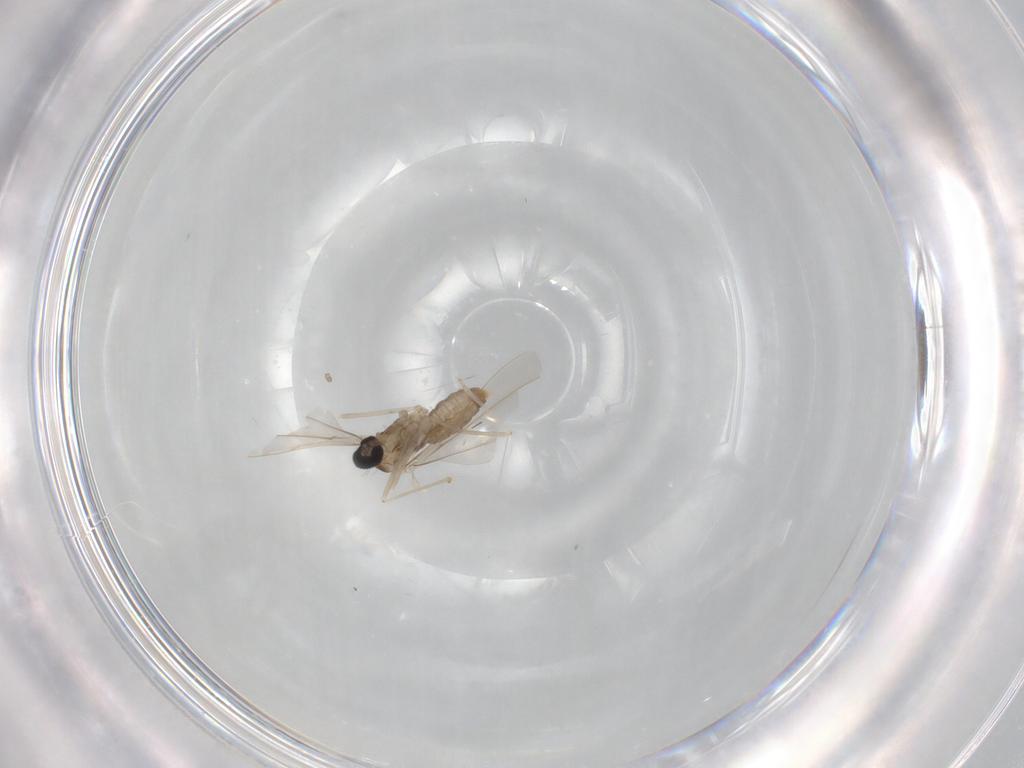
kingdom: Animalia
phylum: Arthropoda
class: Insecta
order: Diptera
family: Cecidomyiidae
